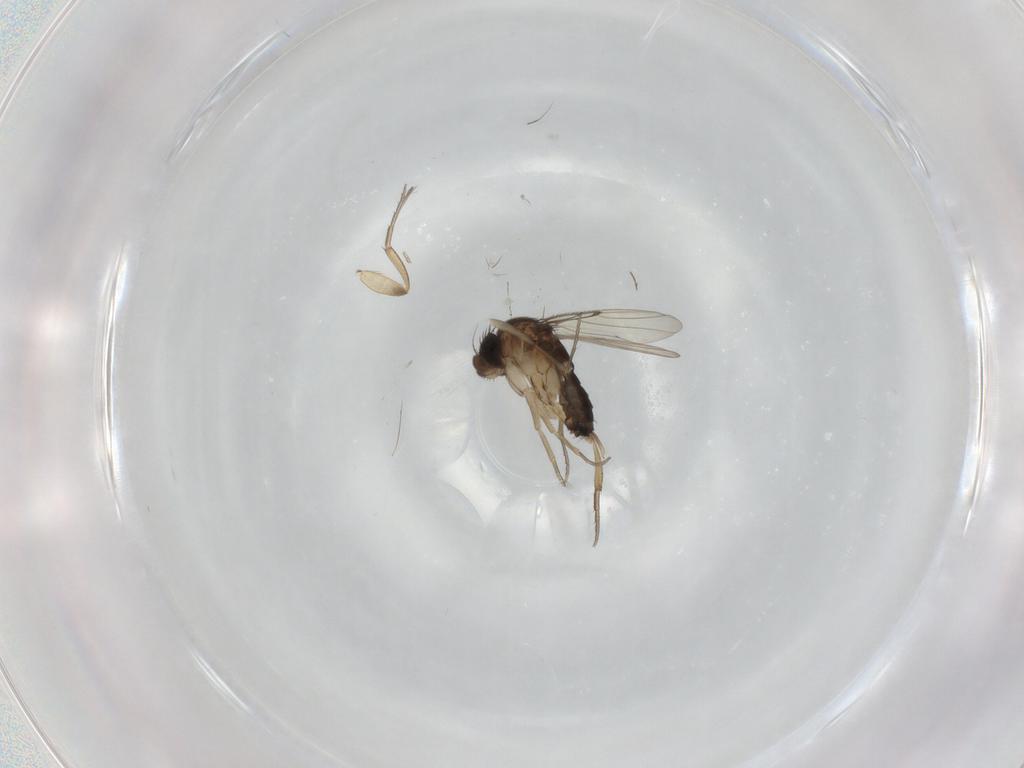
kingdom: Animalia
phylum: Arthropoda
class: Insecta
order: Diptera
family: Phoridae
